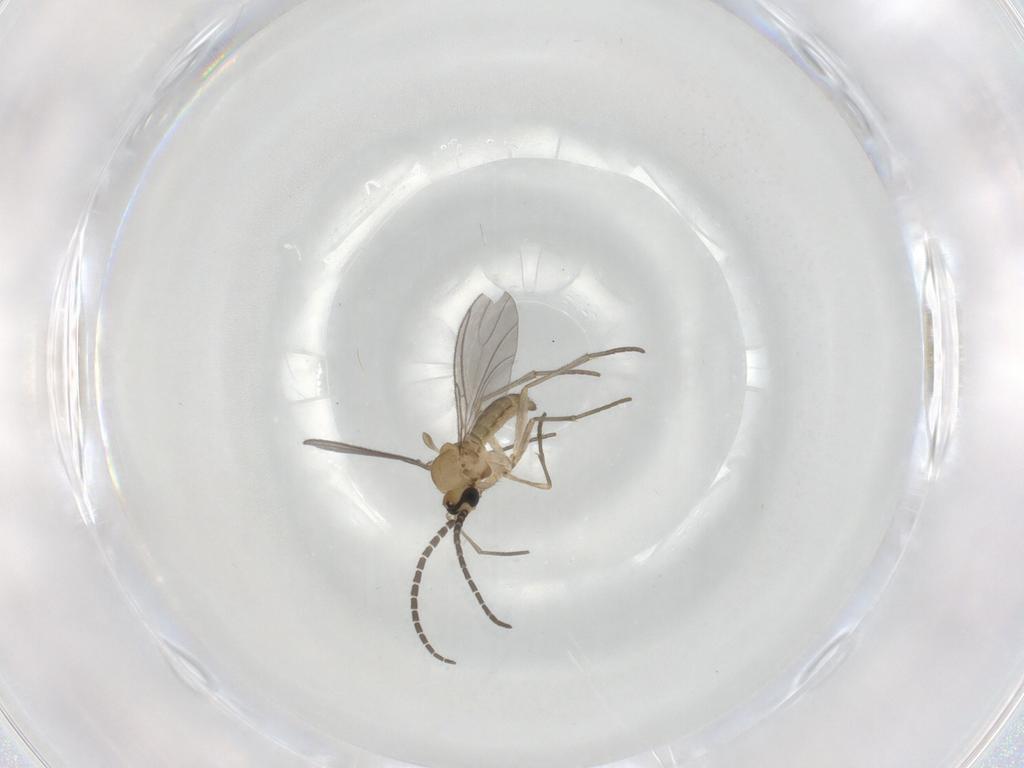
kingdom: Animalia
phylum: Arthropoda
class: Insecta
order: Diptera
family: Sciaridae
